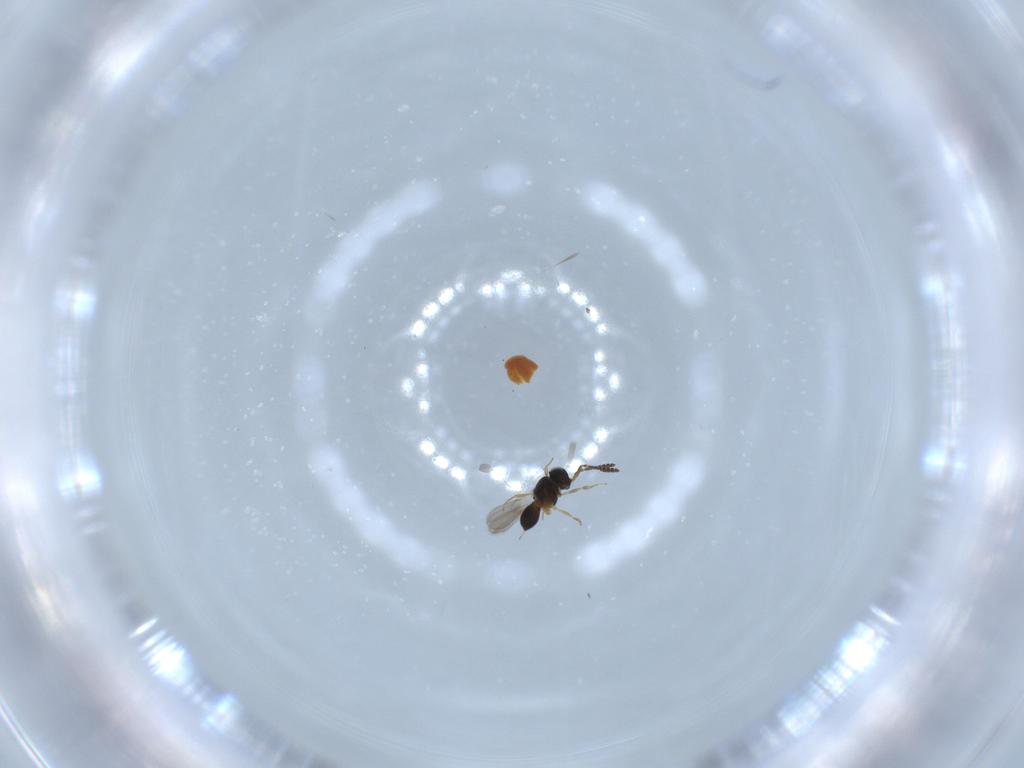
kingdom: Animalia
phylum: Arthropoda
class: Insecta
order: Hymenoptera
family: Scelionidae
